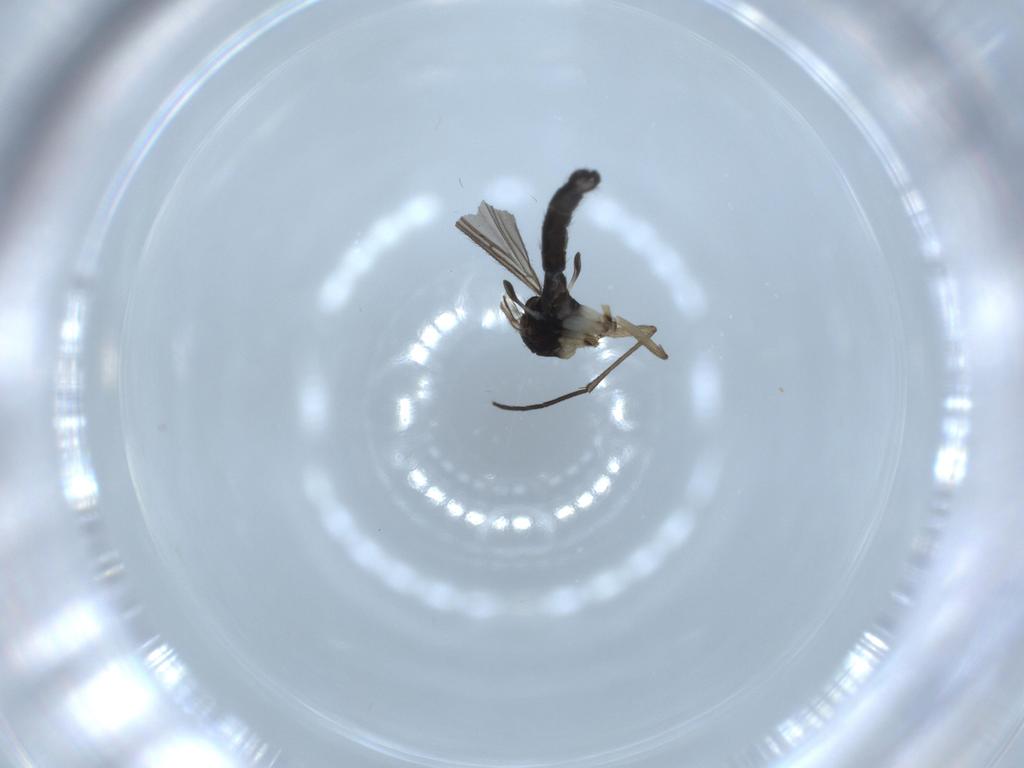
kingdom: Animalia
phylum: Arthropoda
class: Insecta
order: Diptera
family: Sciaridae
